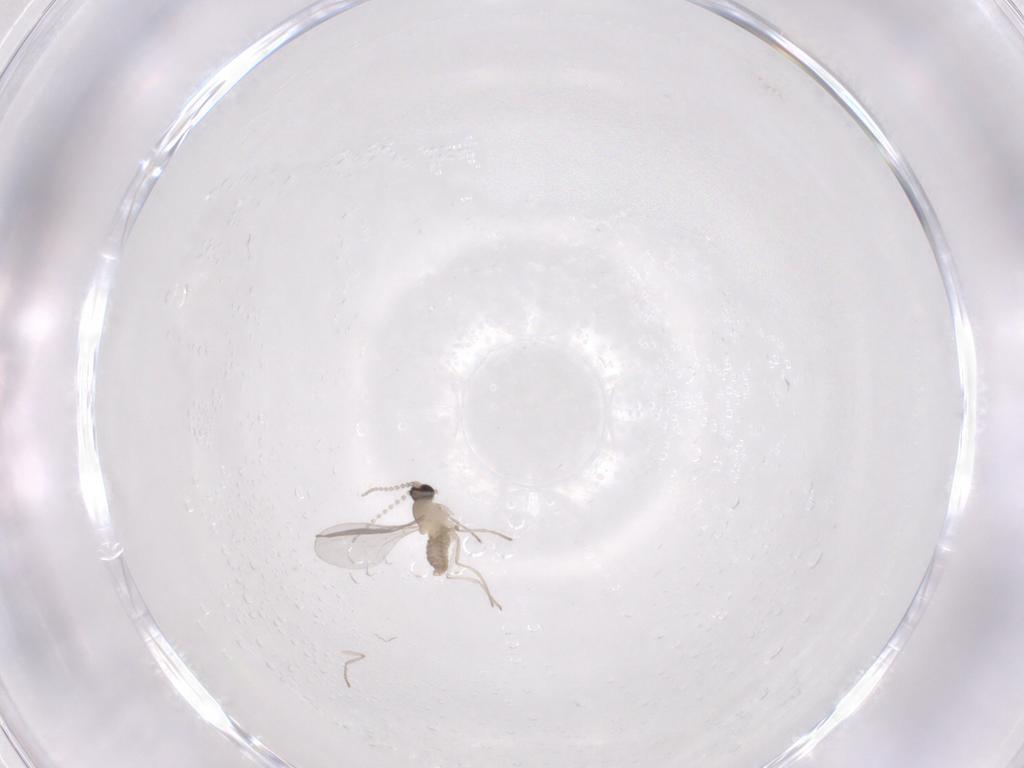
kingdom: Animalia
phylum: Arthropoda
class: Insecta
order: Diptera
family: Cecidomyiidae
